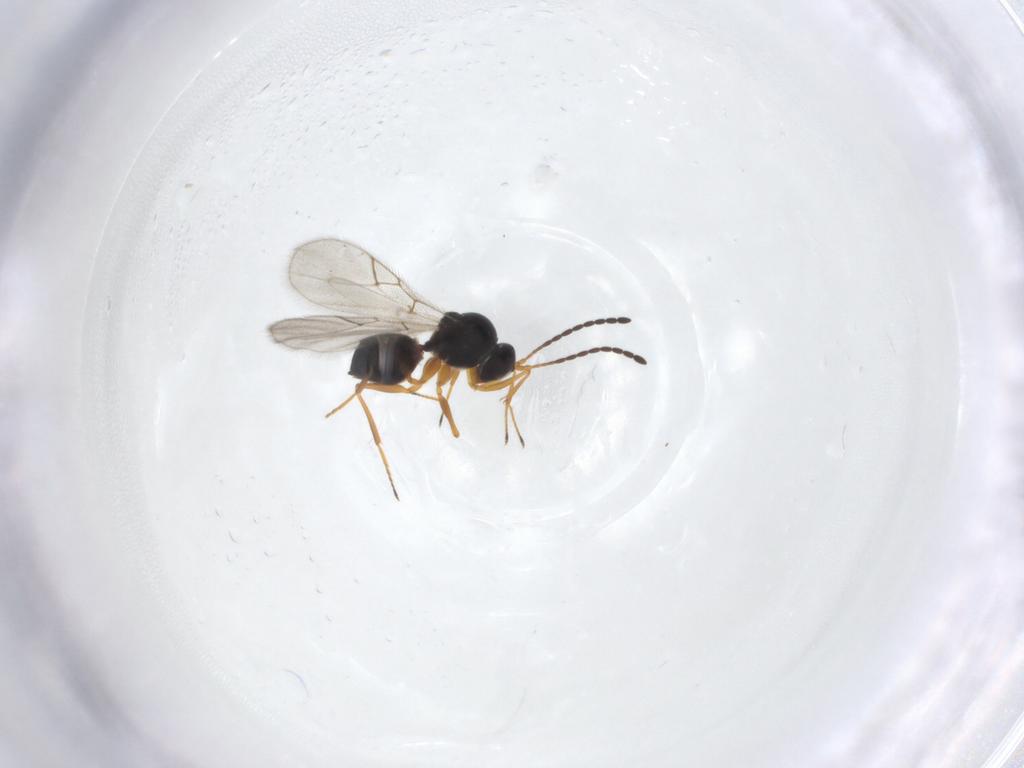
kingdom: Animalia
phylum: Arthropoda
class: Insecta
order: Hymenoptera
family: Figitidae
